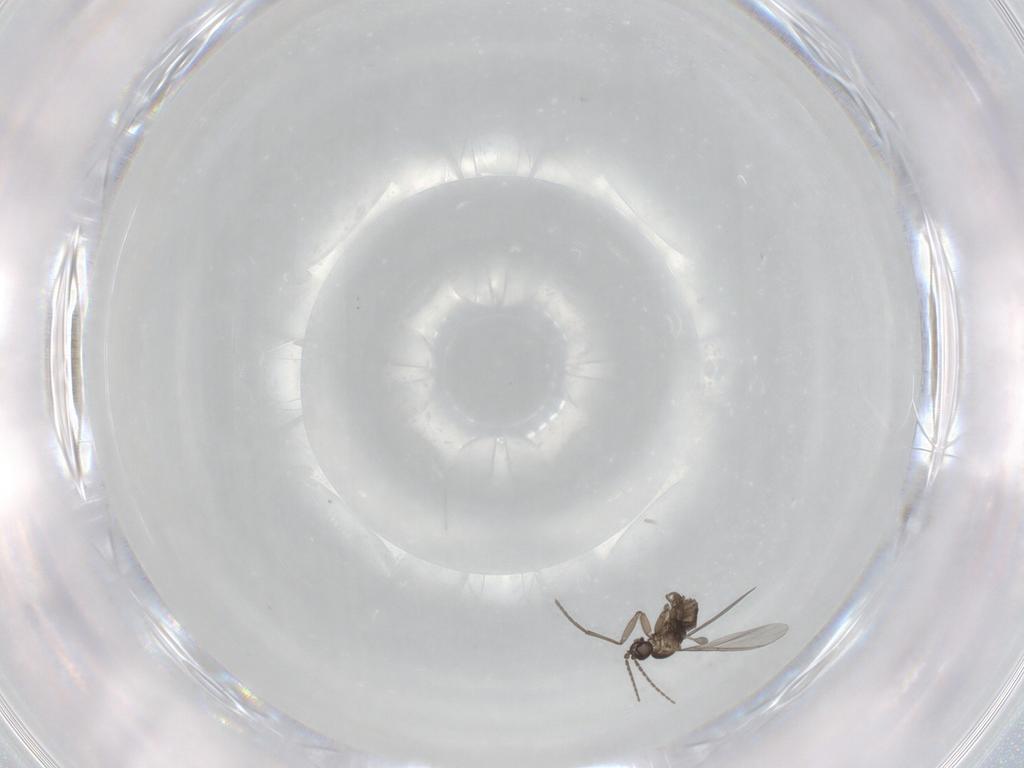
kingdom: Animalia
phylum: Arthropoda
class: Insecta
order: Diptera
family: Sciaridae
